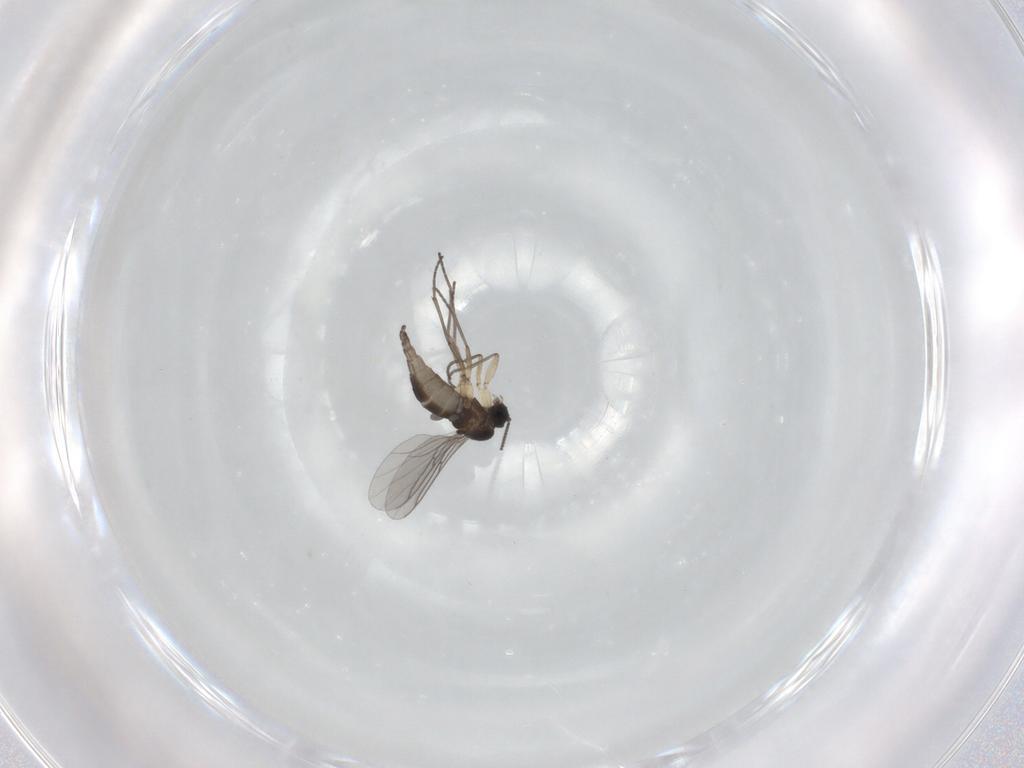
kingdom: Animalia
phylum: Arthropoda
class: Insecta
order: Diptera
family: Sciaridae
